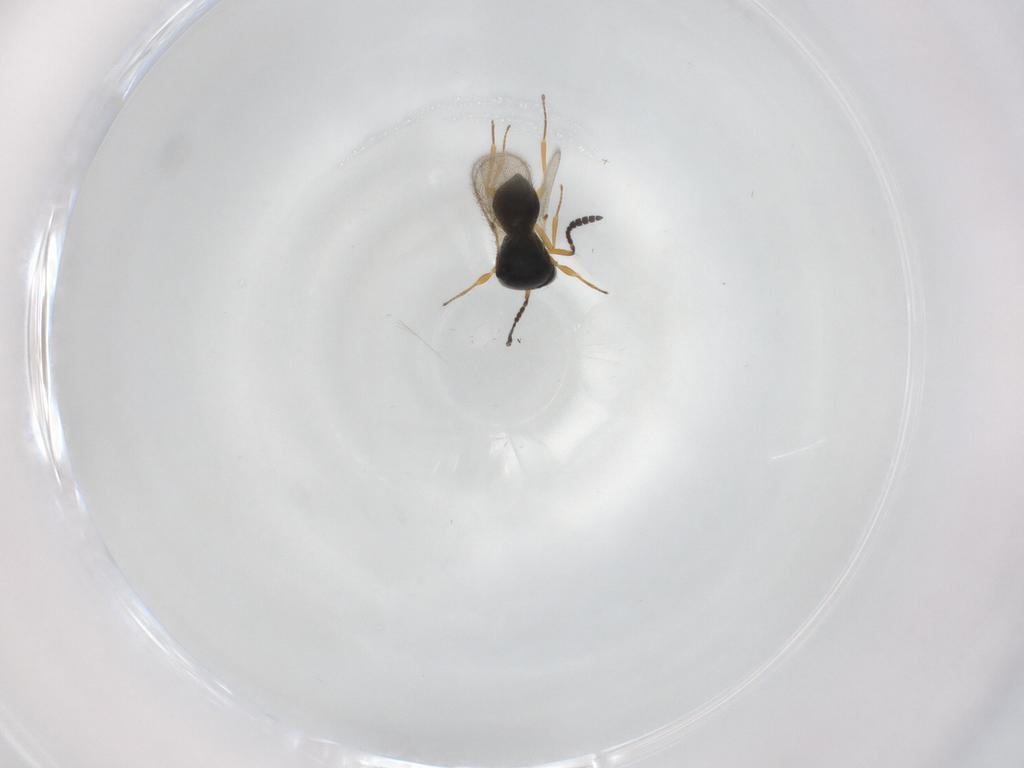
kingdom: Animalia
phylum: Arthropoda
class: Insecta
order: Hymenoptera
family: Scelionidae
